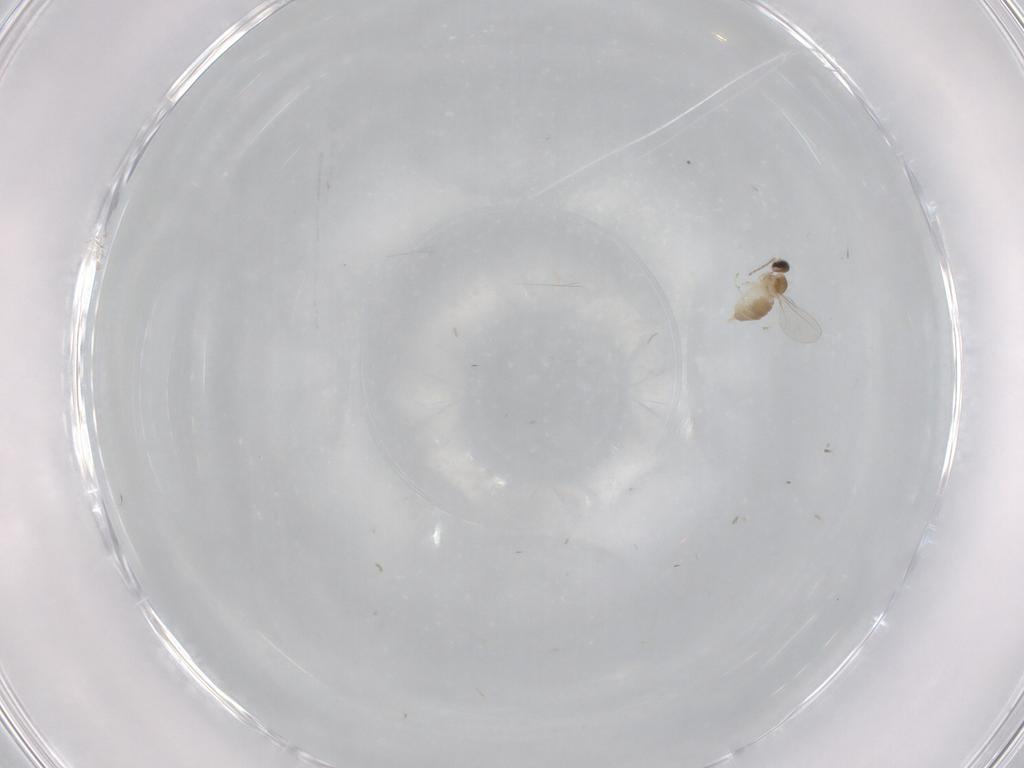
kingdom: Animalia
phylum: Arthropoda
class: Insecta
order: Diptera
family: Cecidomyiidae
